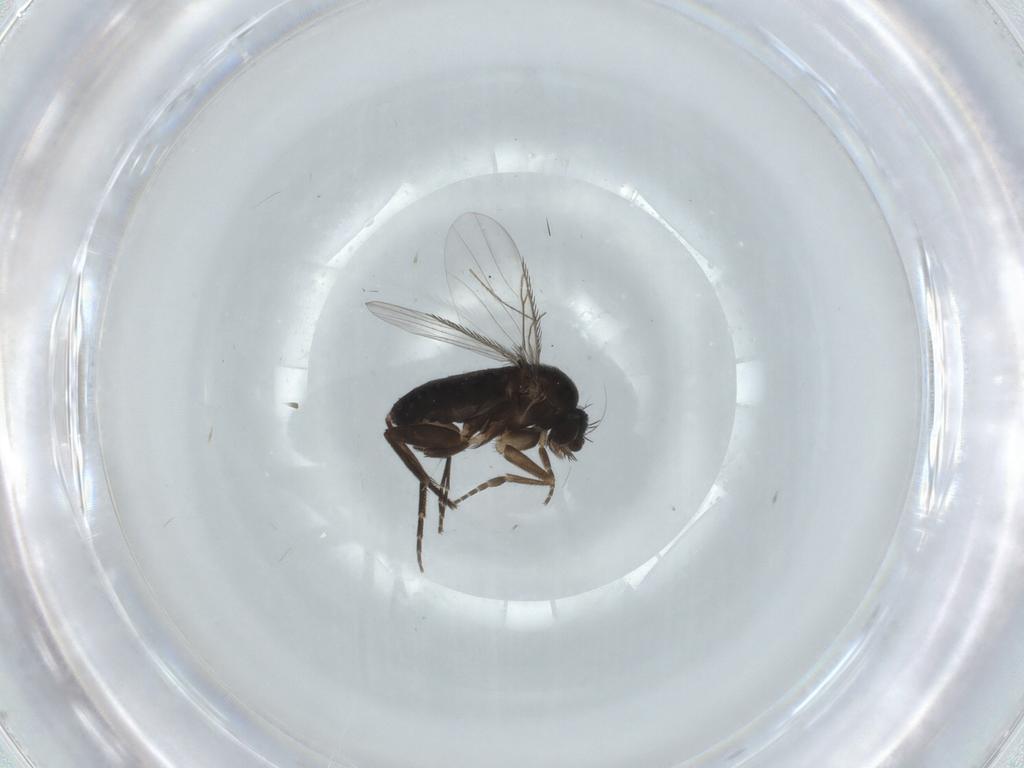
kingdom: Animalia
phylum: Arthropoda
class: Insecta
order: Diptera
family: Phoridae
